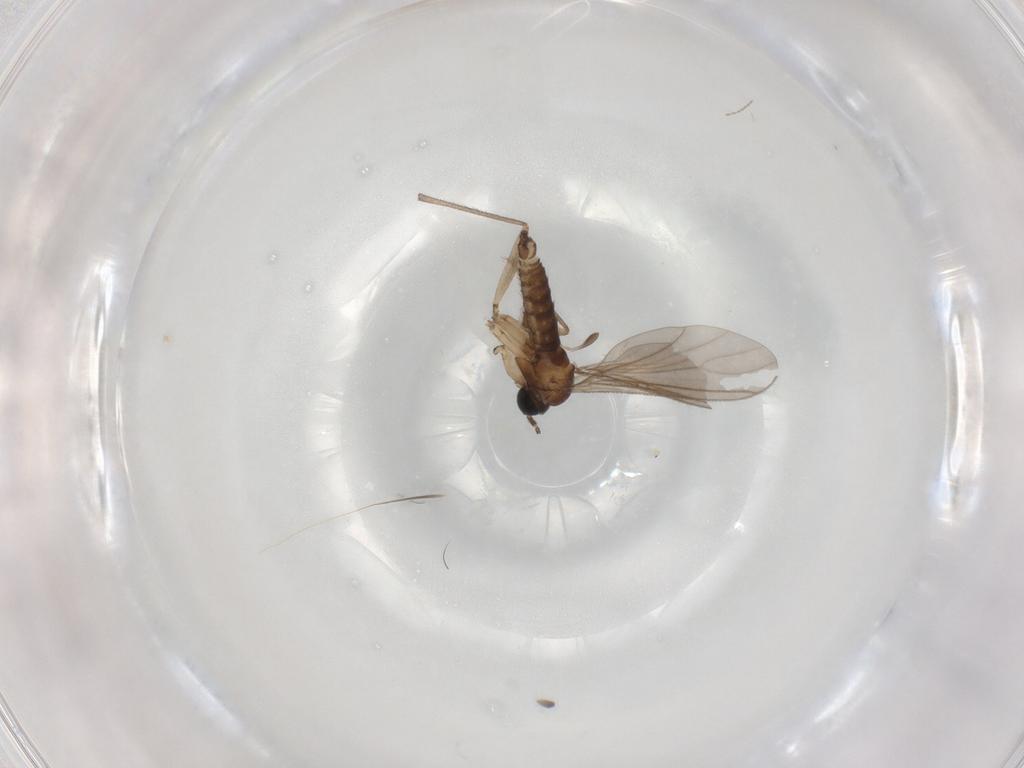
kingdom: Animalia
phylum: Arthropoda
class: Insecta
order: Diptera
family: Sciaridae
